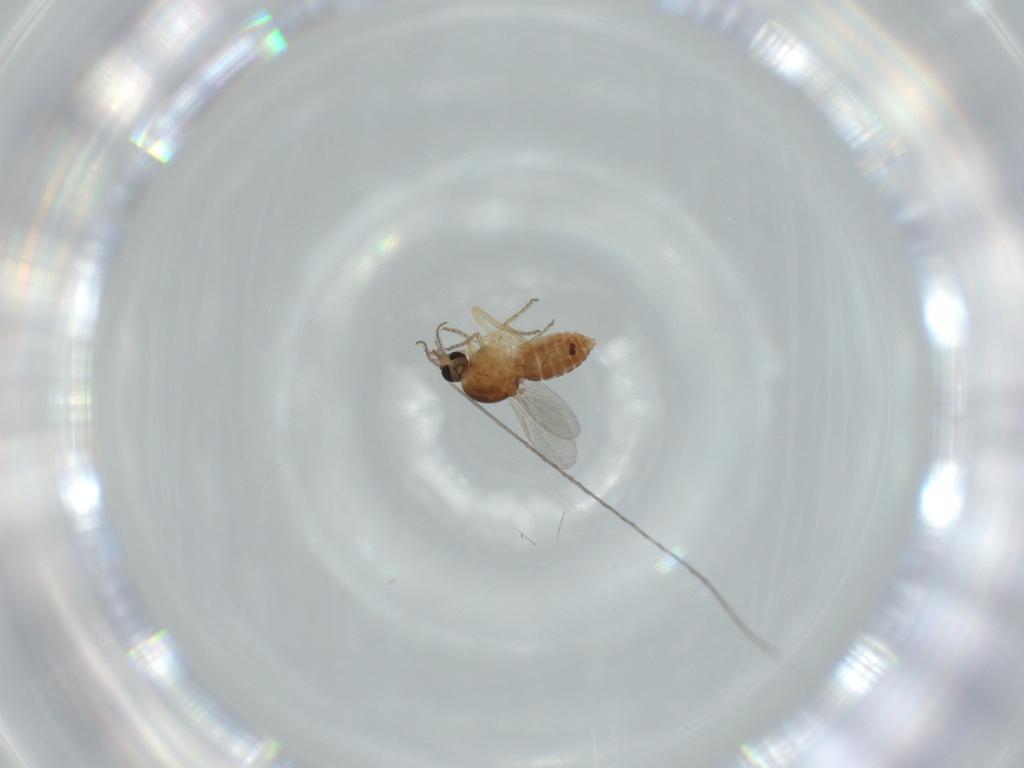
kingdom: Animalia
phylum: Arthropoda
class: Insecta
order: Diptera
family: Ceratopogonidae
